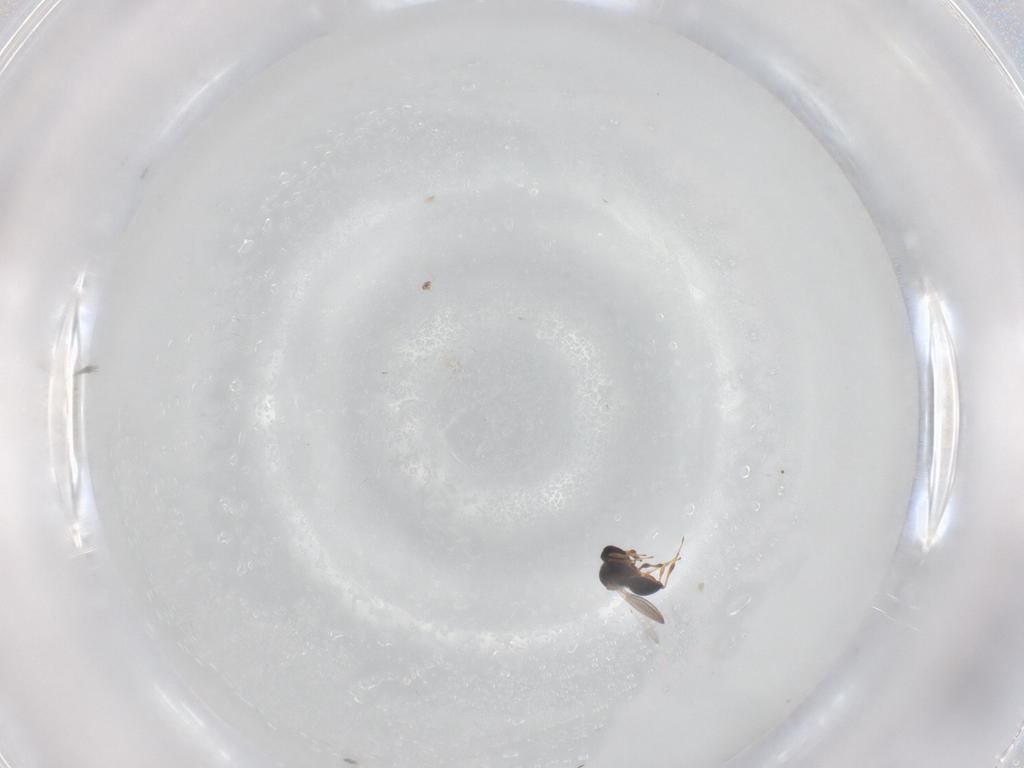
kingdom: Animalia
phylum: Arthropoda
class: Insecta
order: Hymenoptera
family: Platygastridae
